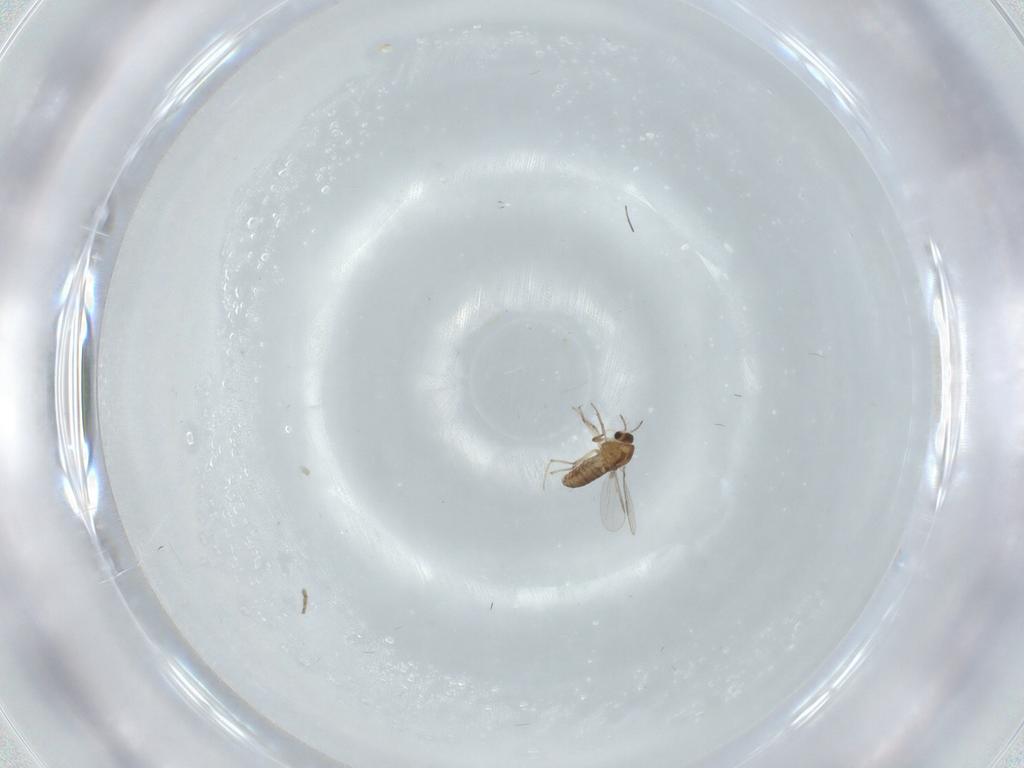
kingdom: Animalia
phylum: Arthropoda
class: Insecta
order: Diptera
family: Chironomidae
